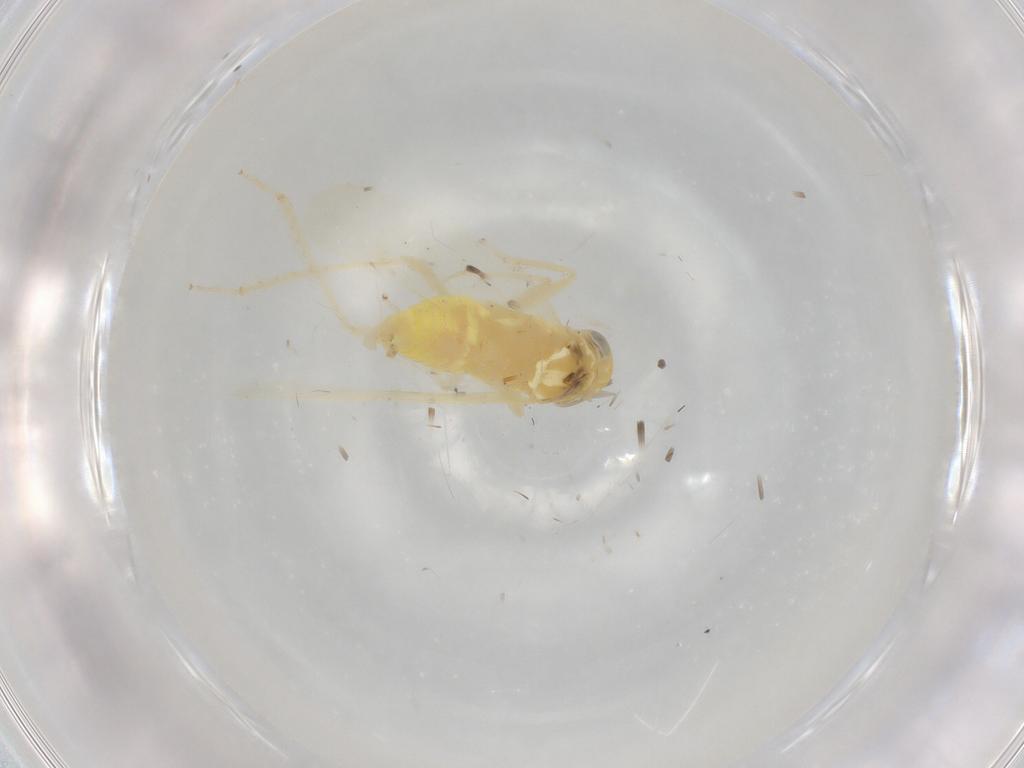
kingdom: Animalia
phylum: Arthropoda
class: Insecta
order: Hemiptera
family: Cicadellidae
